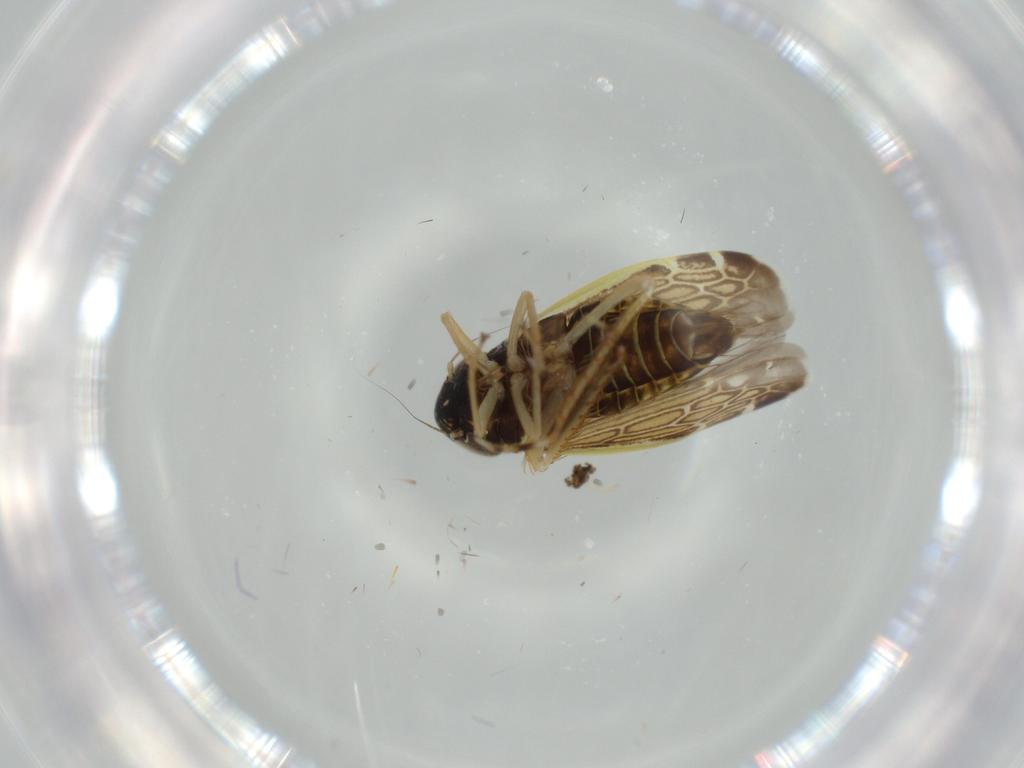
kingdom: Animalia
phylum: Arthropoda
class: Insecta
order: Hemiptera
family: Cicadellidae
